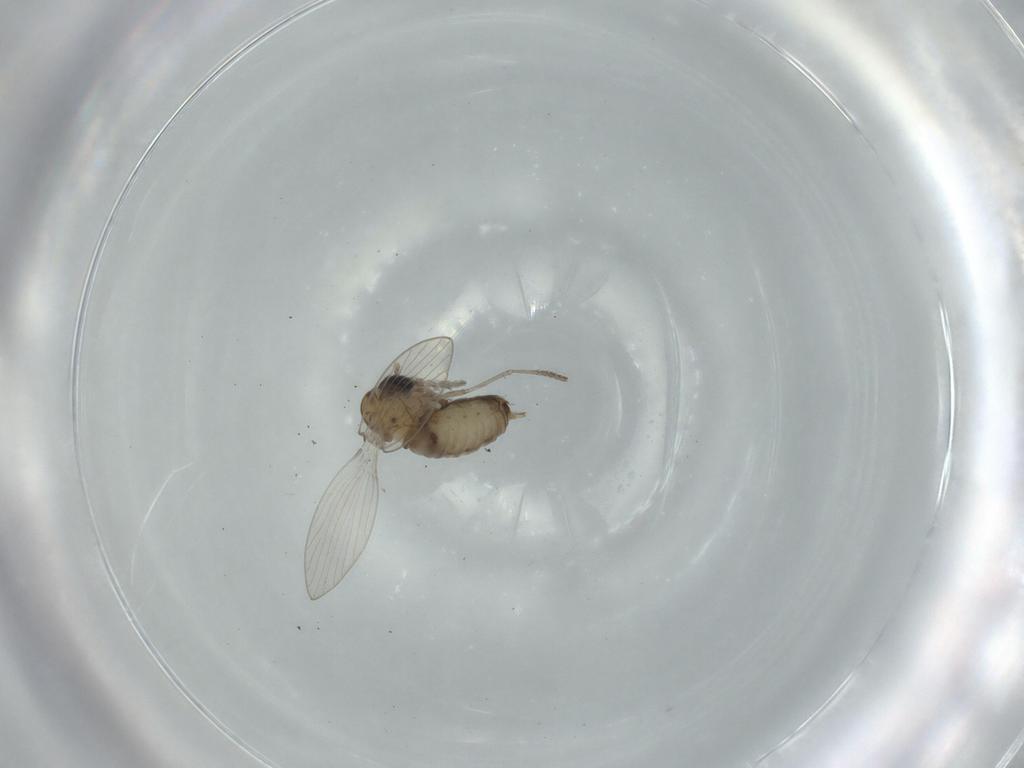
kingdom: Animalia
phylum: Arthropoda
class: Insecta
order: Diptera
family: Psychodidae
